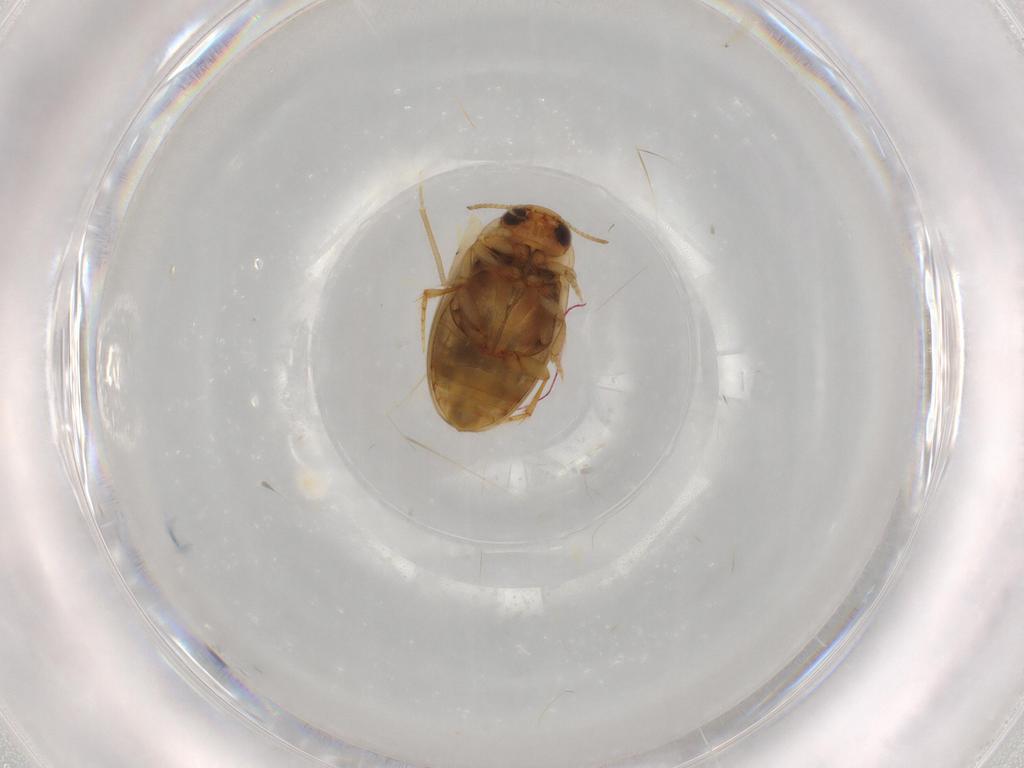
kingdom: Animalia
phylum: Arthropoda
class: Insecta
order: Coleoptera
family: Dytiscidae
